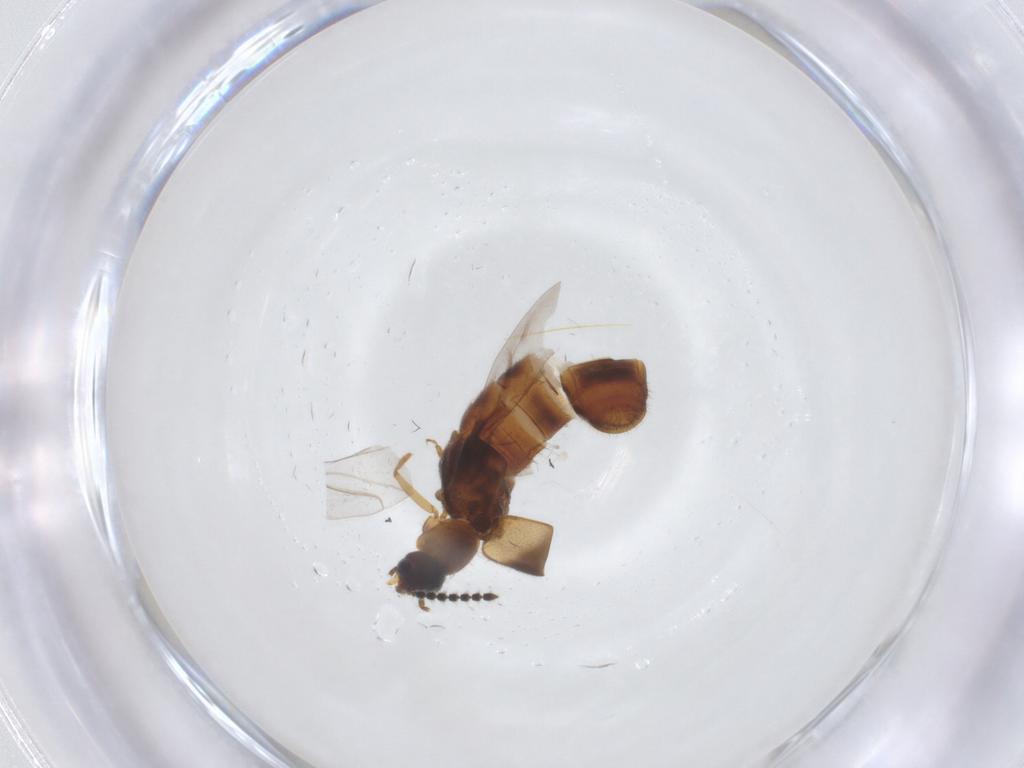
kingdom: Animalia
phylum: Arthropoda
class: Insecta
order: Coleoptera
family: Staphylinidae
